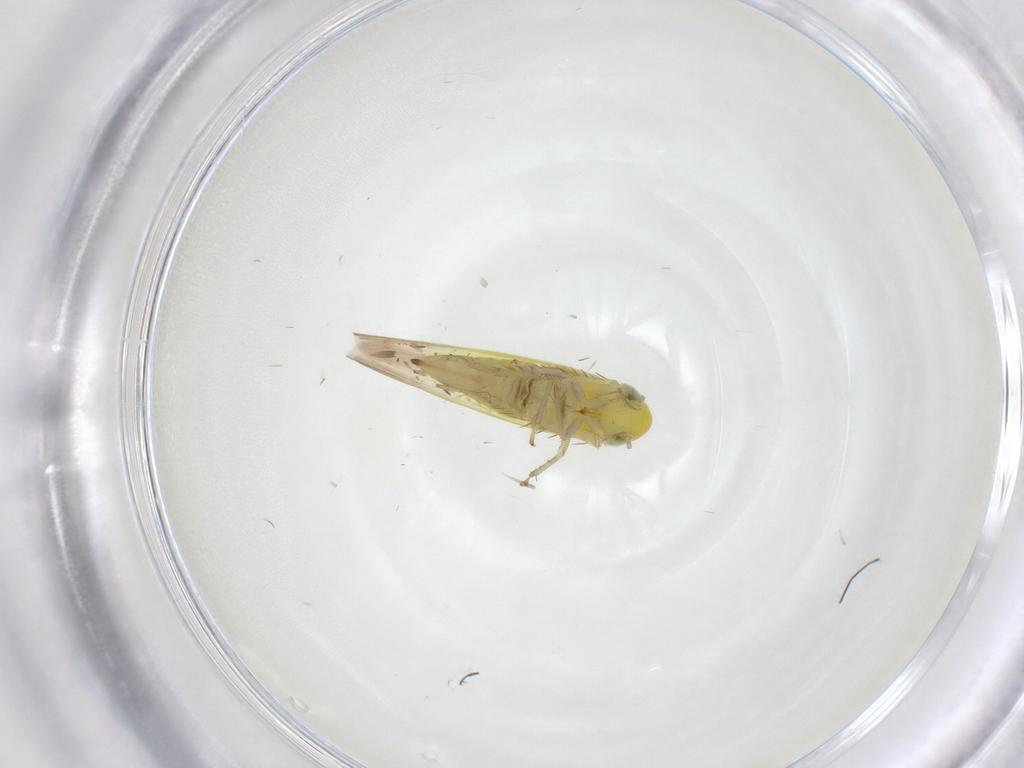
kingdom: Animalia
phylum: Arthropoda
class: Insecta
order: Hemiptera
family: Cicadellidae
